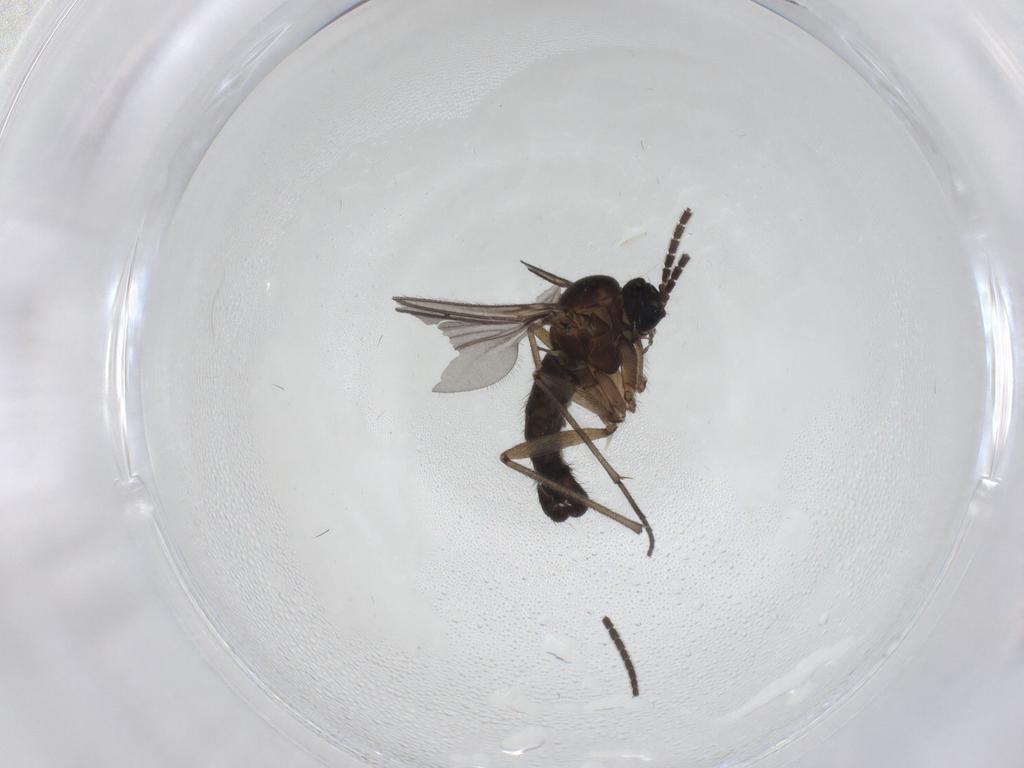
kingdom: Animalia
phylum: Arthropoda
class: Insecta
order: Diptera
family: Sciaridae
